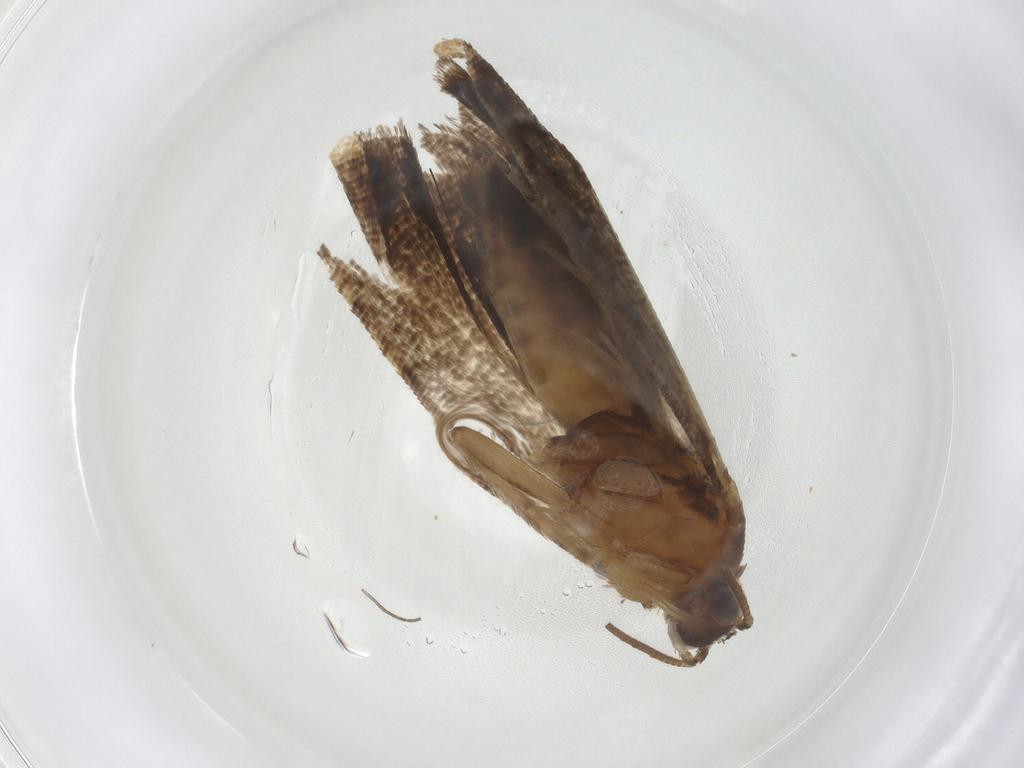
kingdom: Animalia
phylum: Arthropoda
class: Insecta
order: Lepidoptera
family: Tortricidae
